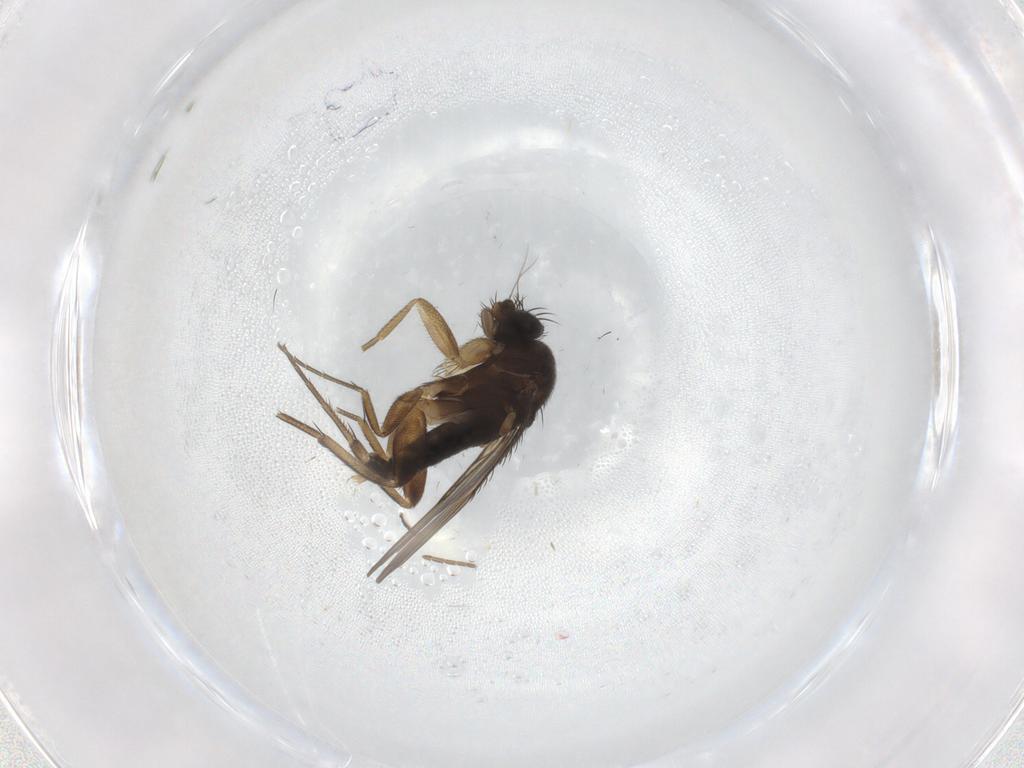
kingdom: Animalia
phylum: Arthropoda
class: Insecta
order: Diptera
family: Phoridae
